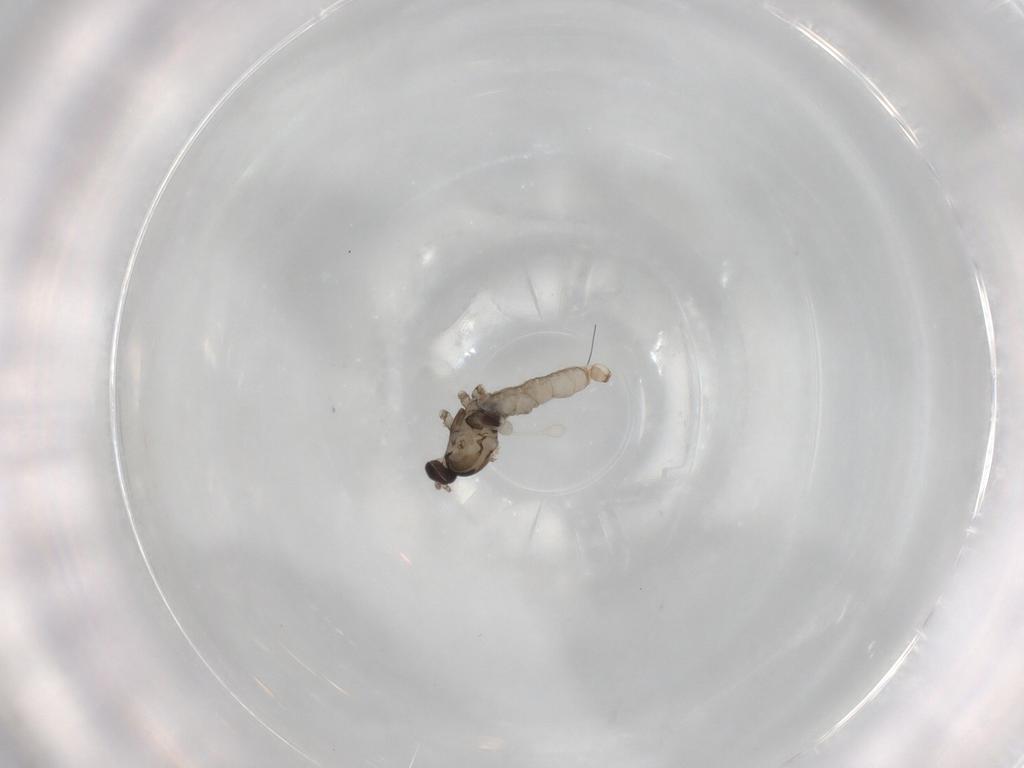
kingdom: Animalia
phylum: Arthropoda
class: Insecta
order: Diptera
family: Cecidomyiidae
